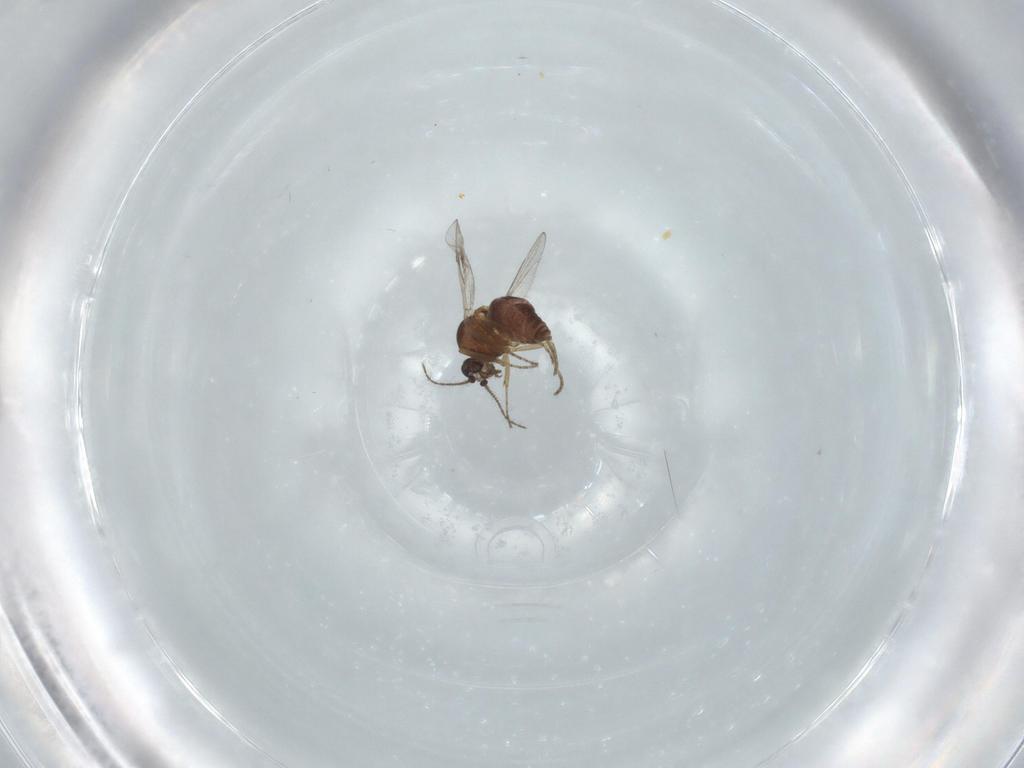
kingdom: Animalia
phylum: Arthropoda
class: Insecta
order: Diptera
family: Ceratopogonidae
